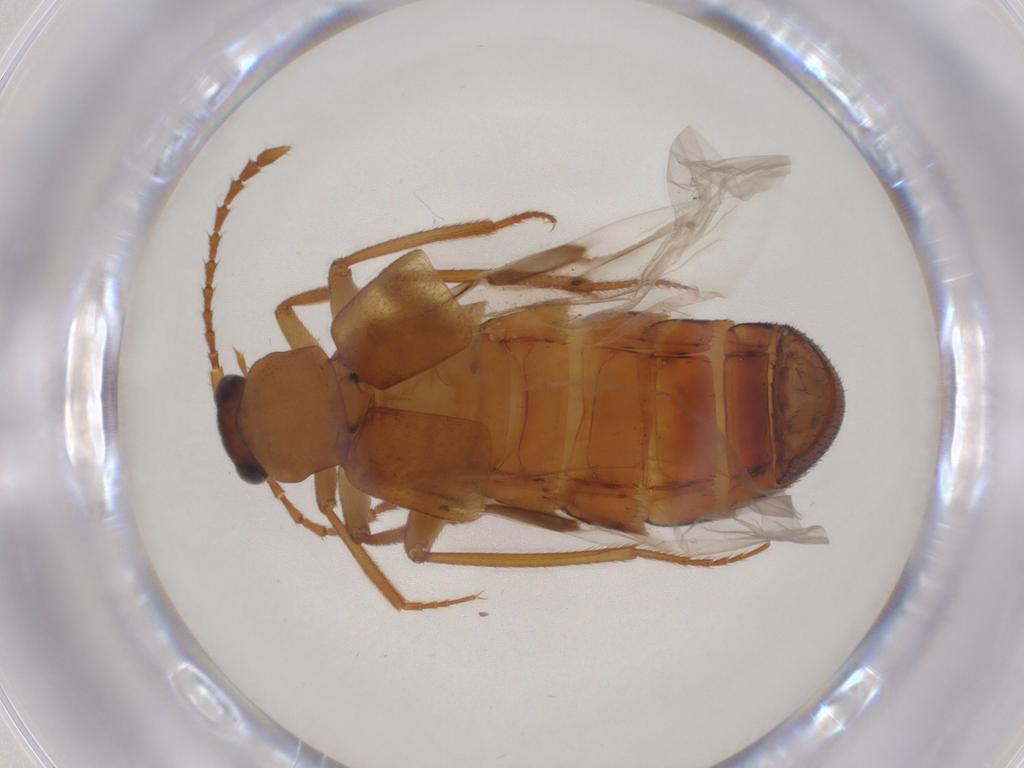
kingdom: Animalia
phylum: Arthropoda
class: Insecta
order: Coleoptera
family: Staphylinidae
